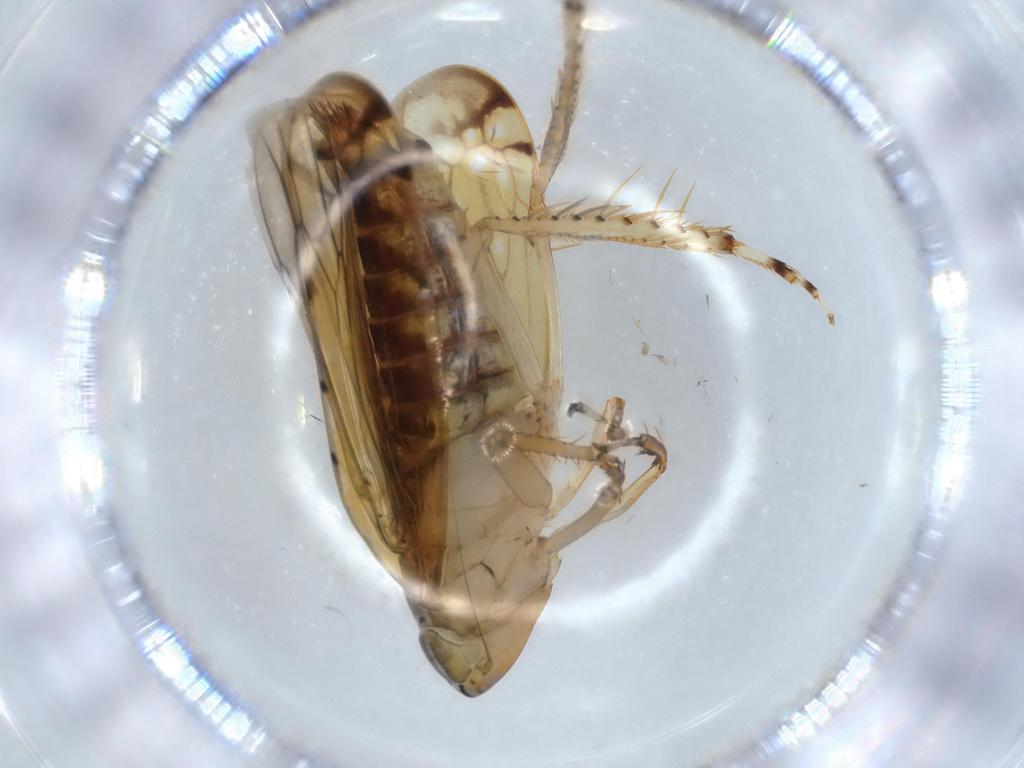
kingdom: Animalia
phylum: Arthropoda
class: Insecta
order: Hemiptera
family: Cicadellidae
